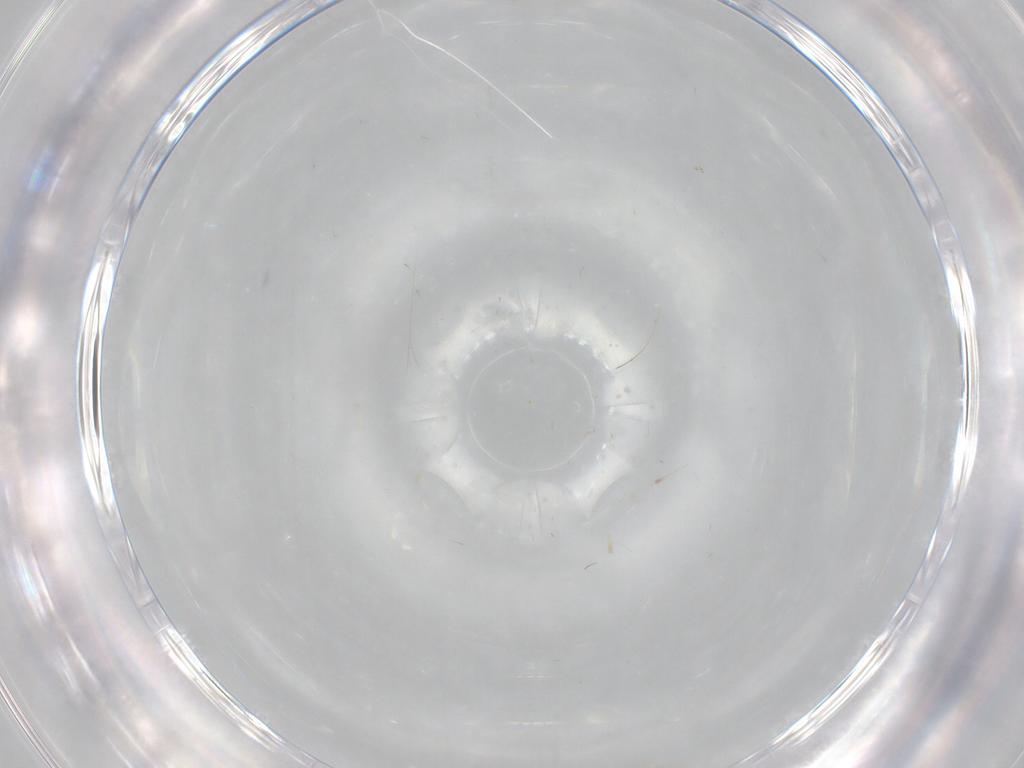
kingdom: Animalia
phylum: Arthropoda
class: Insecta
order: Diptera
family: Cecidomyiidae
